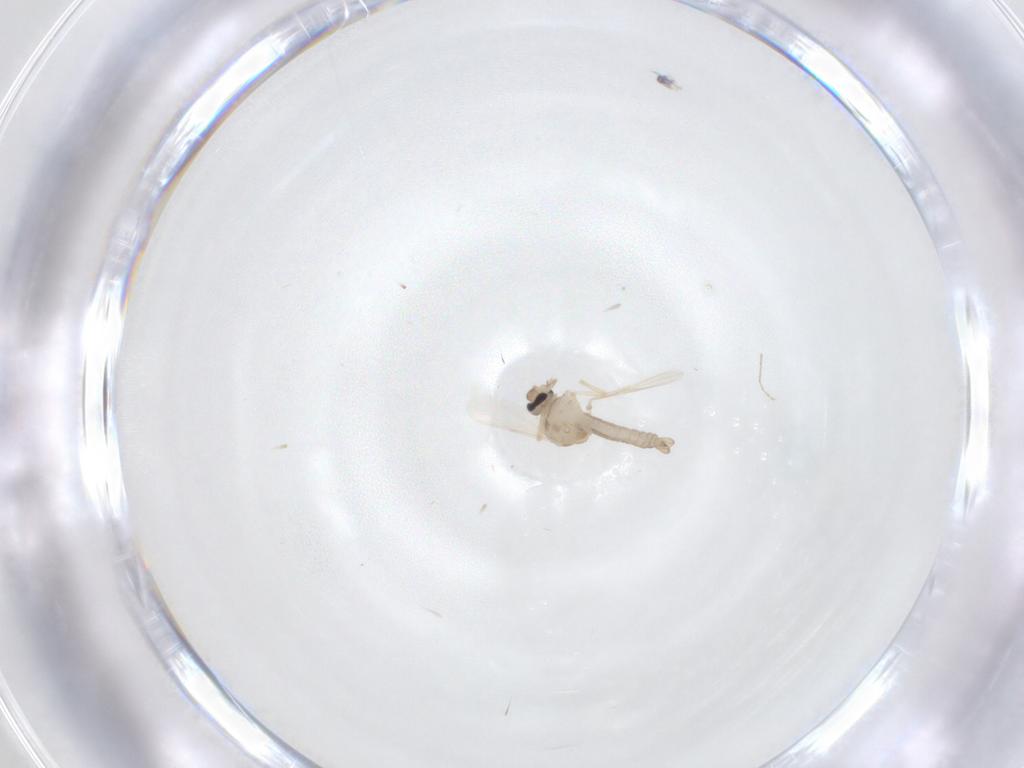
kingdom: Animalia
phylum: Arthropoda
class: Insecta
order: Diptera
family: Ceratopogonidae
